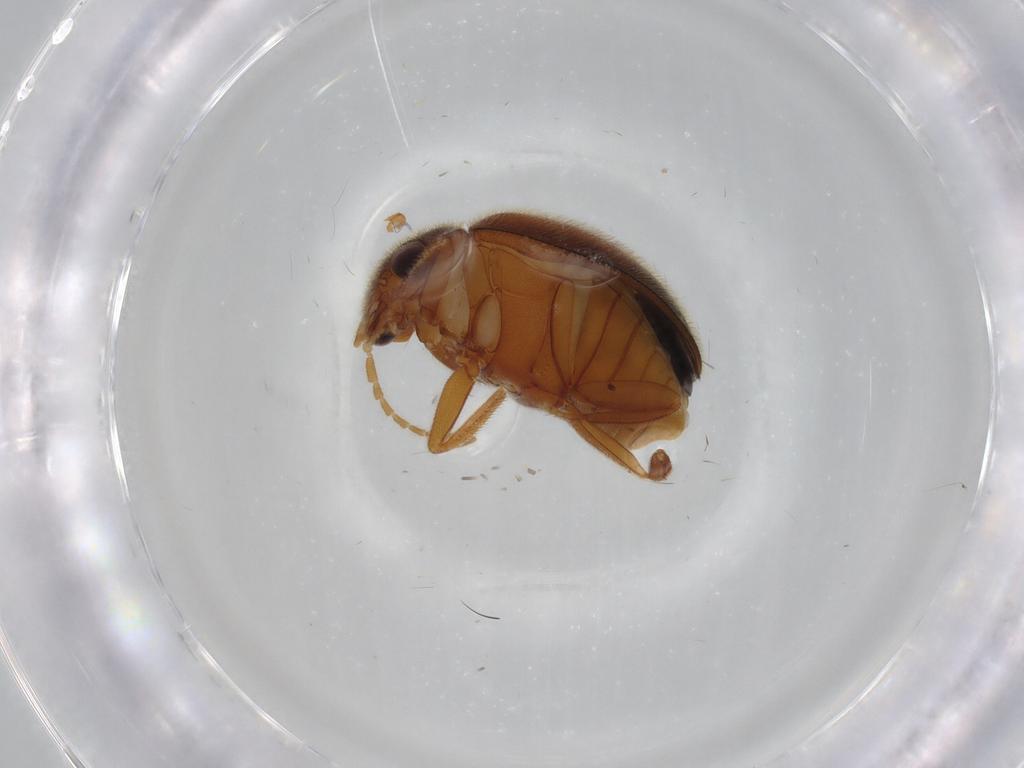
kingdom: Animalia
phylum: Arthropoda
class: Insecta
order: Coleoptera
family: Scirtidae
